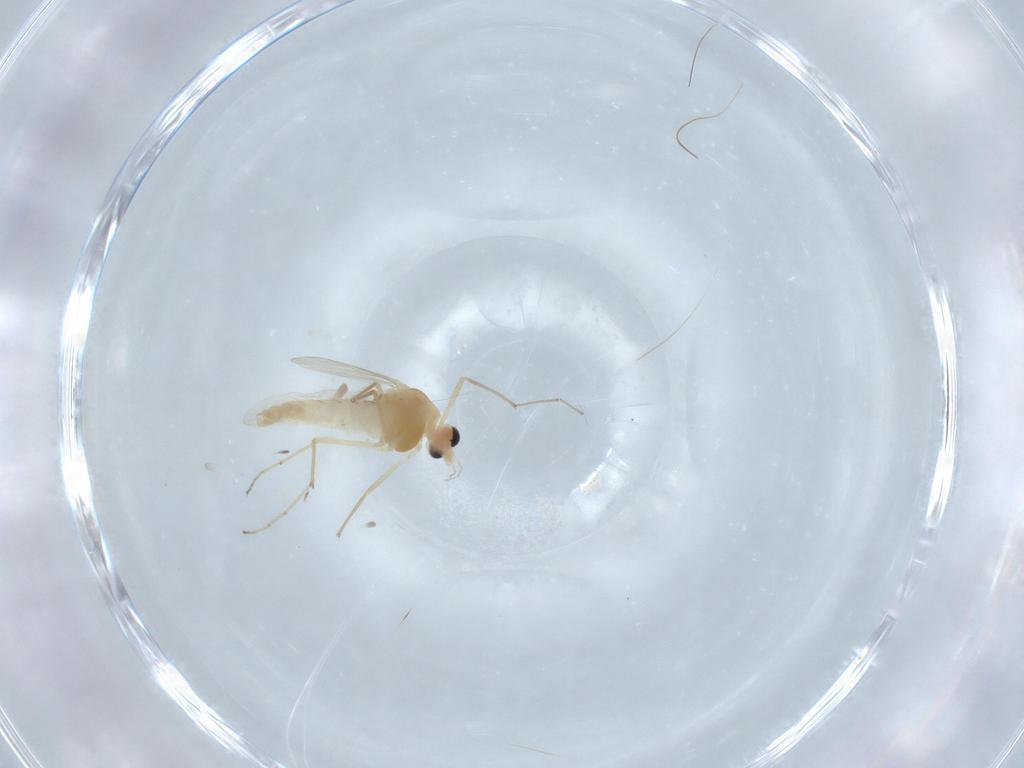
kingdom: Animalia
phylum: Arthropoda
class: Insecta
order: Diptera
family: Chironomidae
